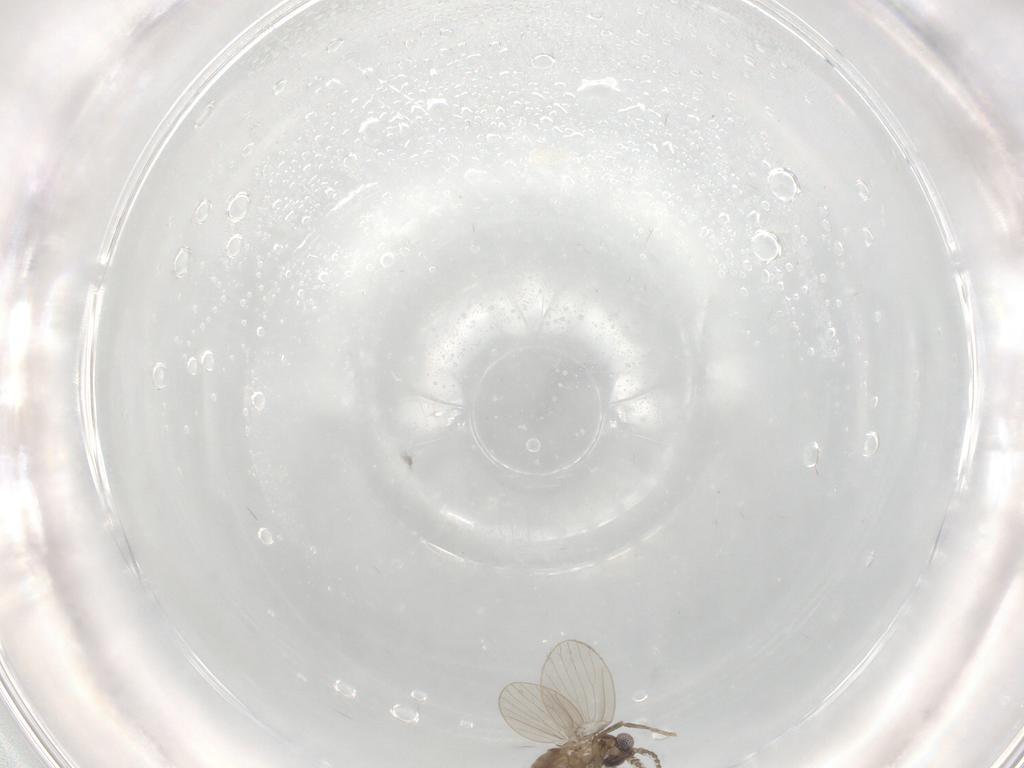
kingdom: Animalia
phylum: Arthropoda
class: Insecta
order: Diptera
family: Psychodidae
